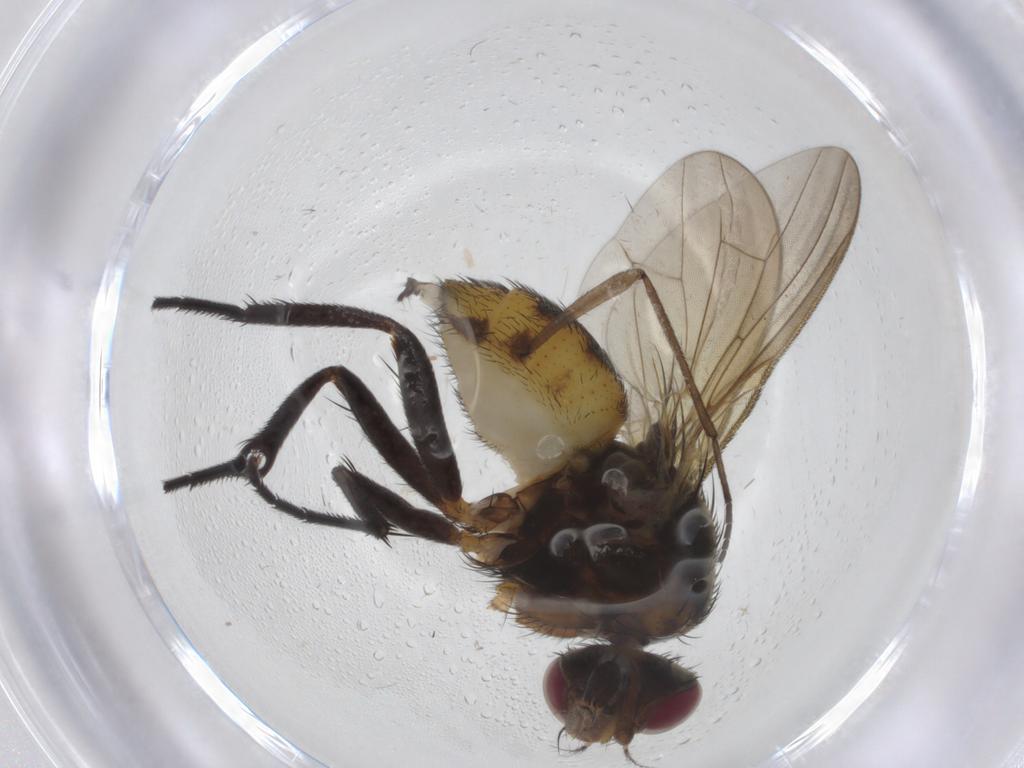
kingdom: Animalia
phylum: Arthropoda
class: Insecta
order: Diptera
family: Anthomyiidae
